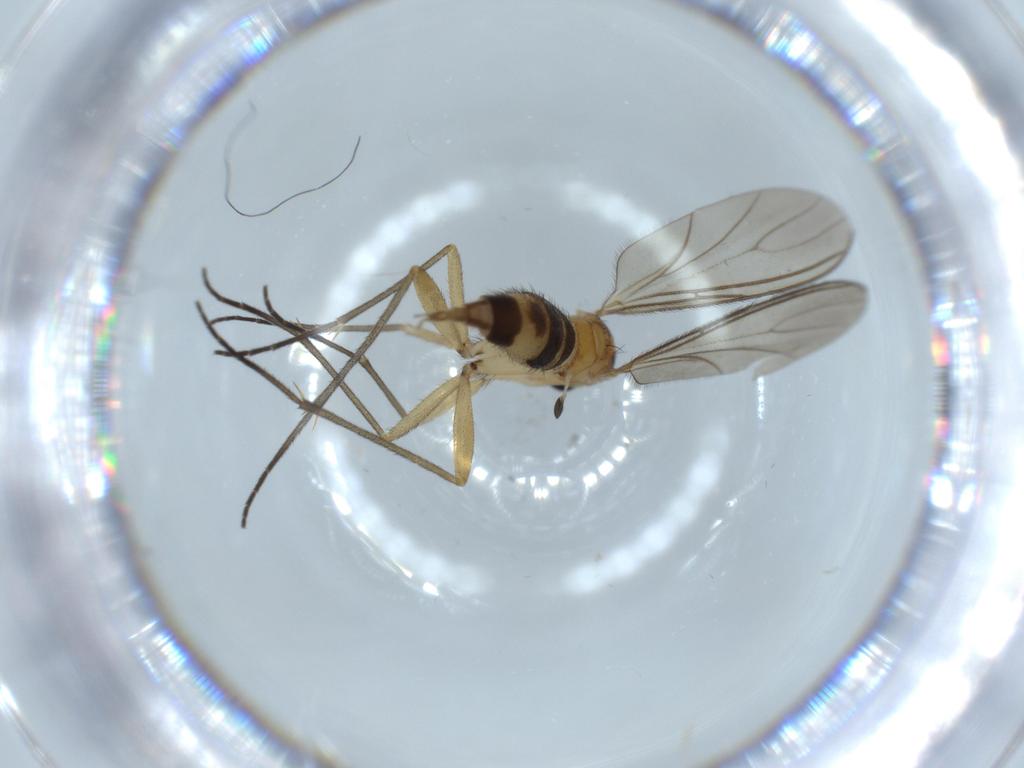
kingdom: Animalia
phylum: Arthropoda
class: Insecta
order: Diptera
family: Sciaridae
